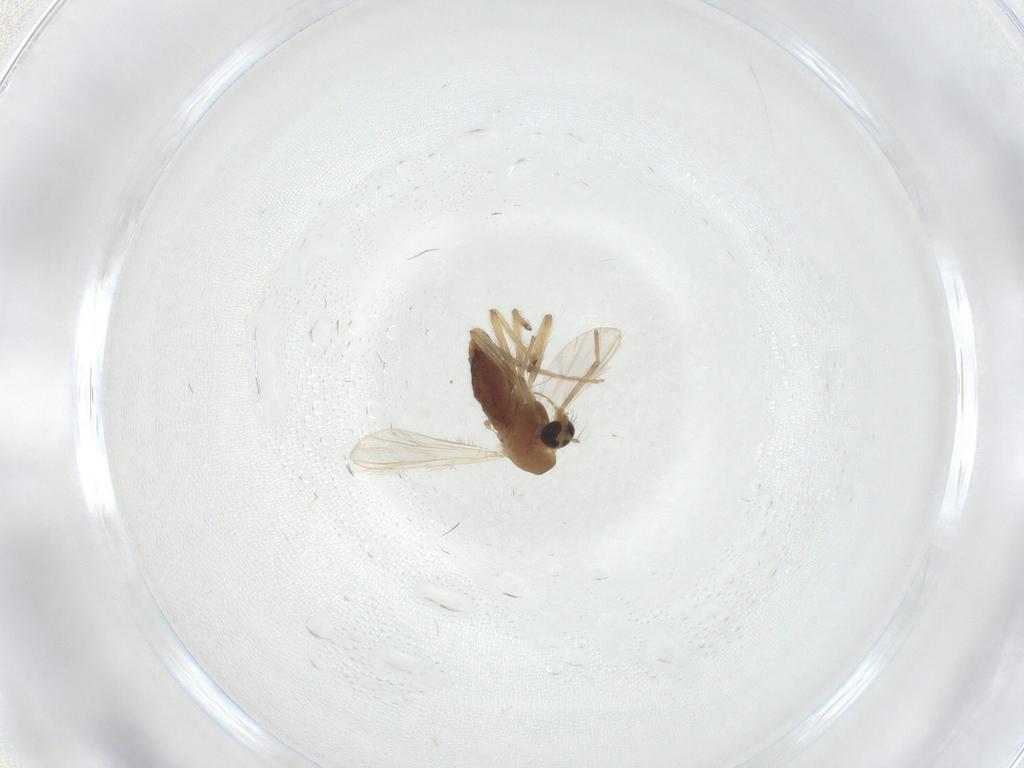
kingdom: Animalia
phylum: Arthropoda
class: Insecta
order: Diptera
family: Chironomidae
